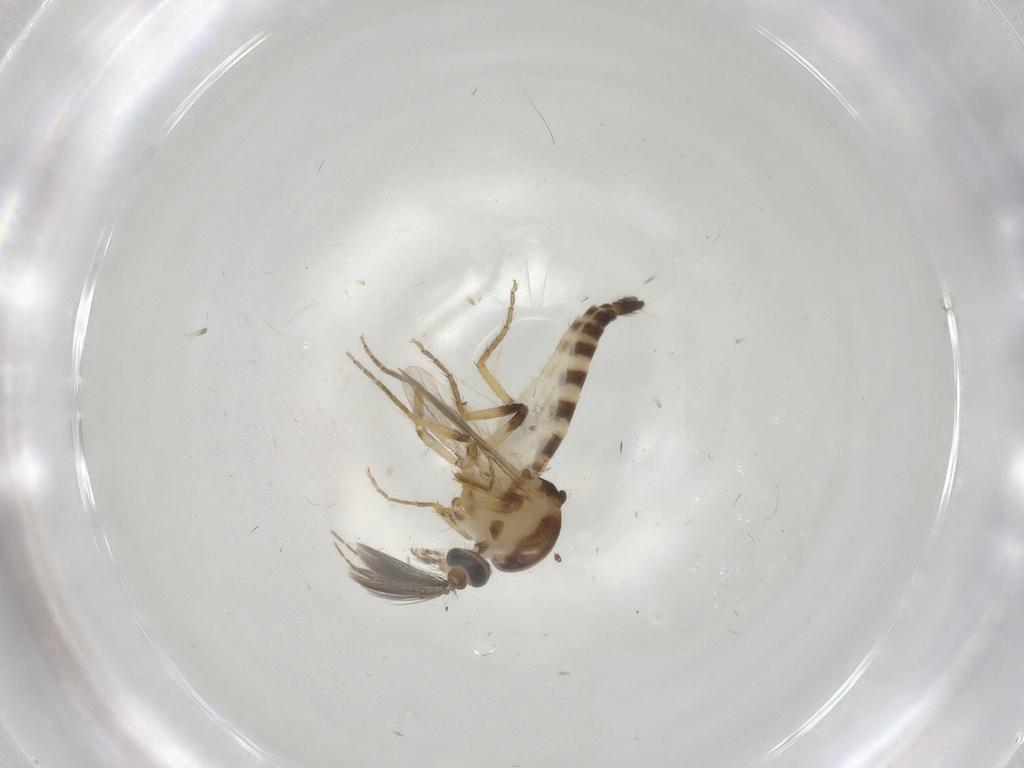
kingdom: Animalia
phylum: Arthropoda
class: Insecta
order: Diptera
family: Ceratopogonidae
